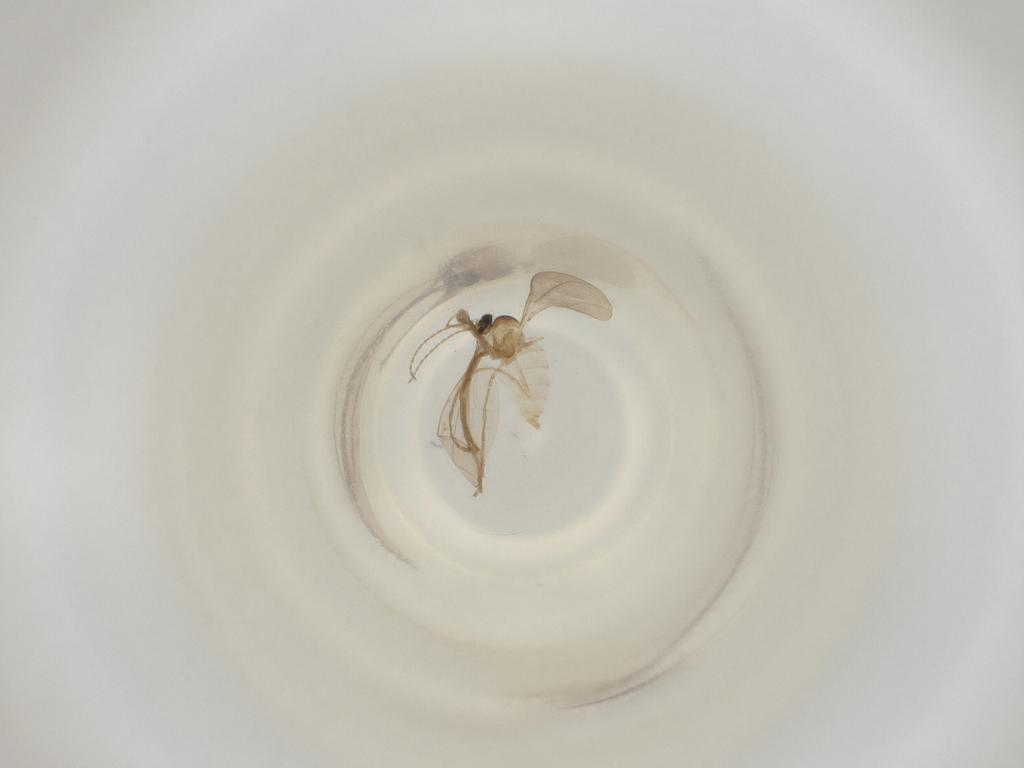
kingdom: Animalia
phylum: Arthropoda
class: Insecta
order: Diptera
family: Cecidomyiidae
